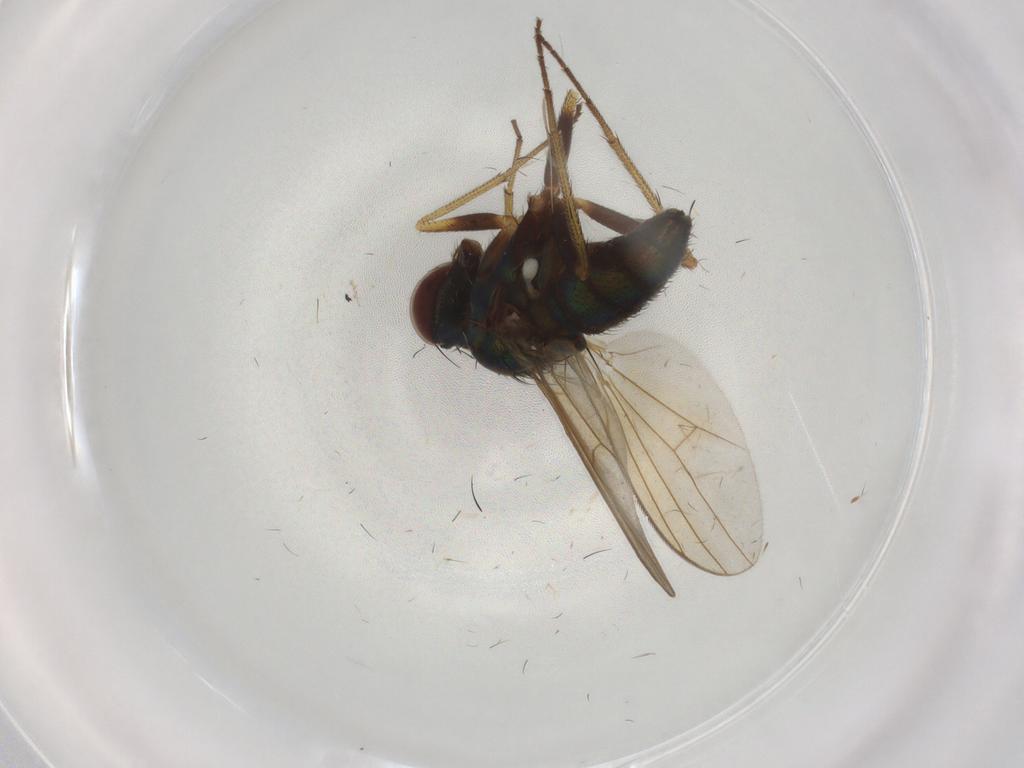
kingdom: Animalia
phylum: Arthropoda
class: Insecta
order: Diptera
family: Dolichopodidae
